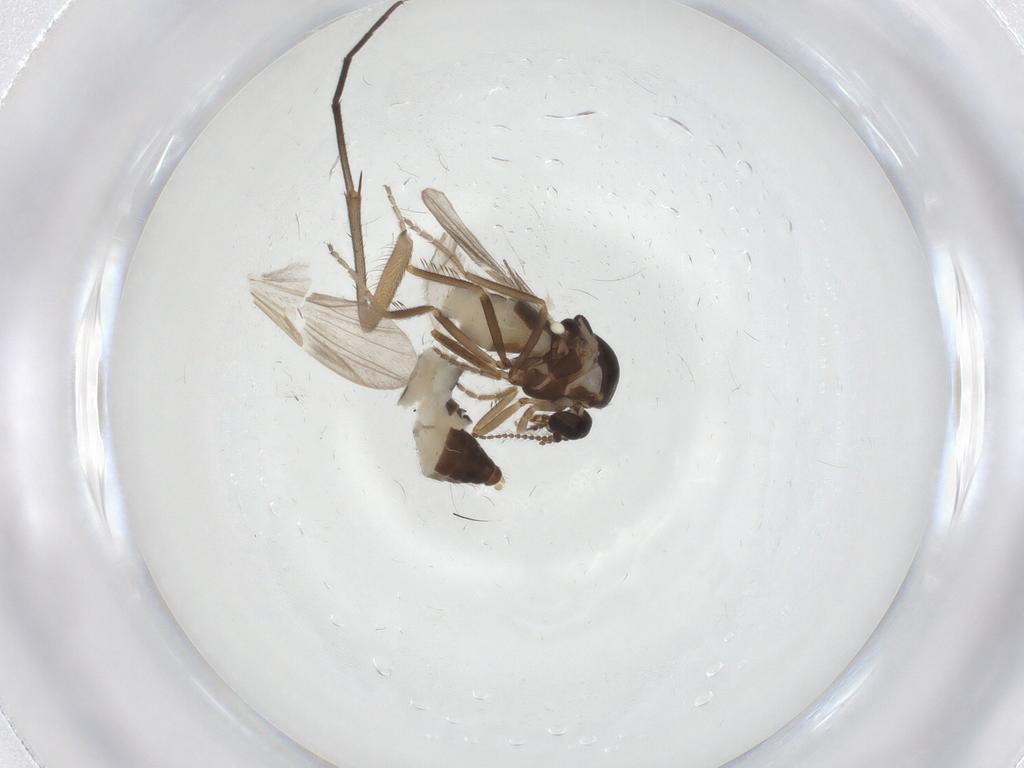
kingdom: Animalia
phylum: Arthropoda
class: Insecta
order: Diptera
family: Ceratopogonidae
